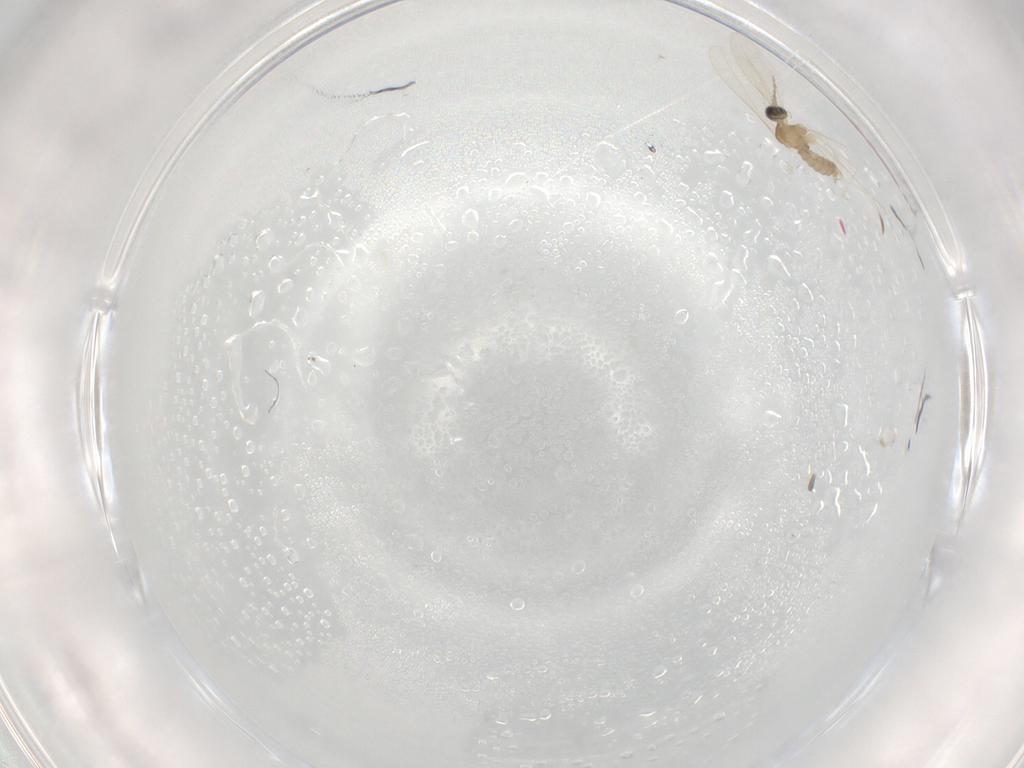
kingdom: Animalia
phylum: Arthropoda
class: Insecta
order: Diptera
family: Cecidomyiidae
